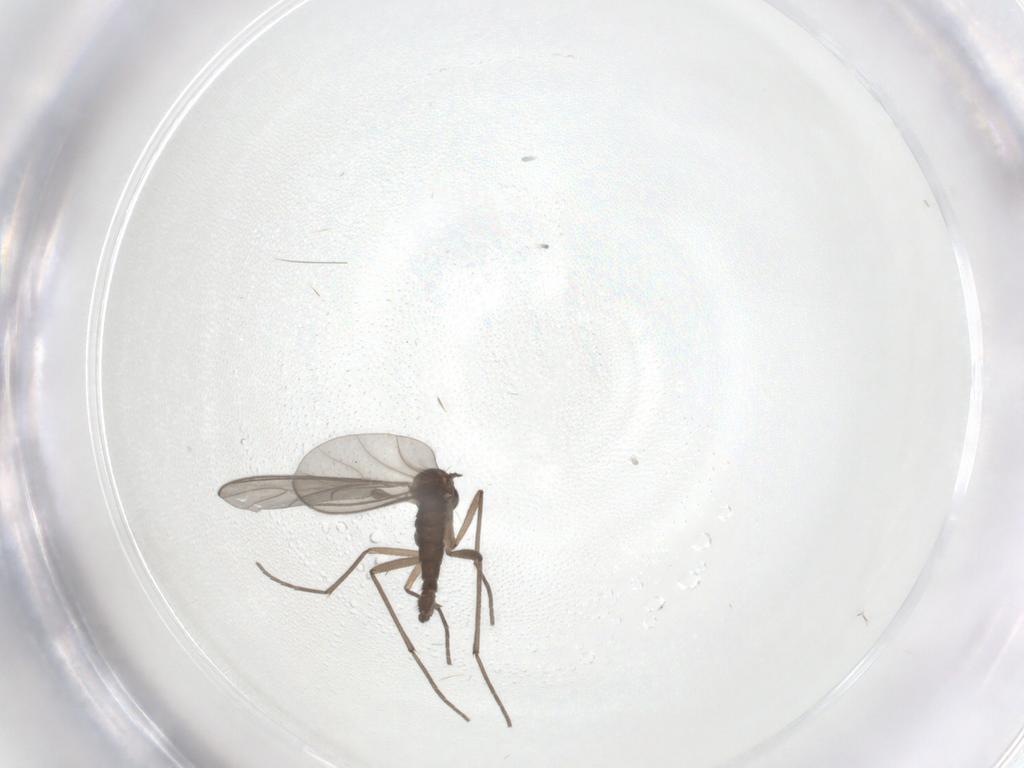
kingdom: Animalia
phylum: Arthropoda
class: Insecta
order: Diptera
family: Sciaridae
